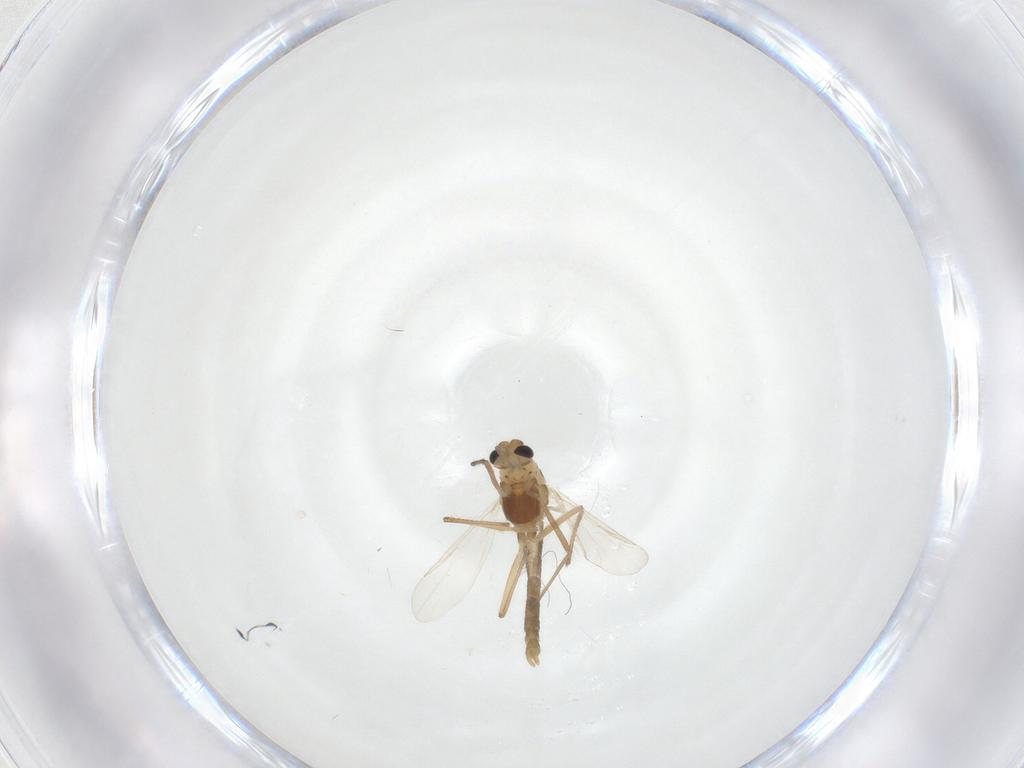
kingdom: Animalia
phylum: Arthropoda
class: Insecta
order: Diptera
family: Chironomidae
